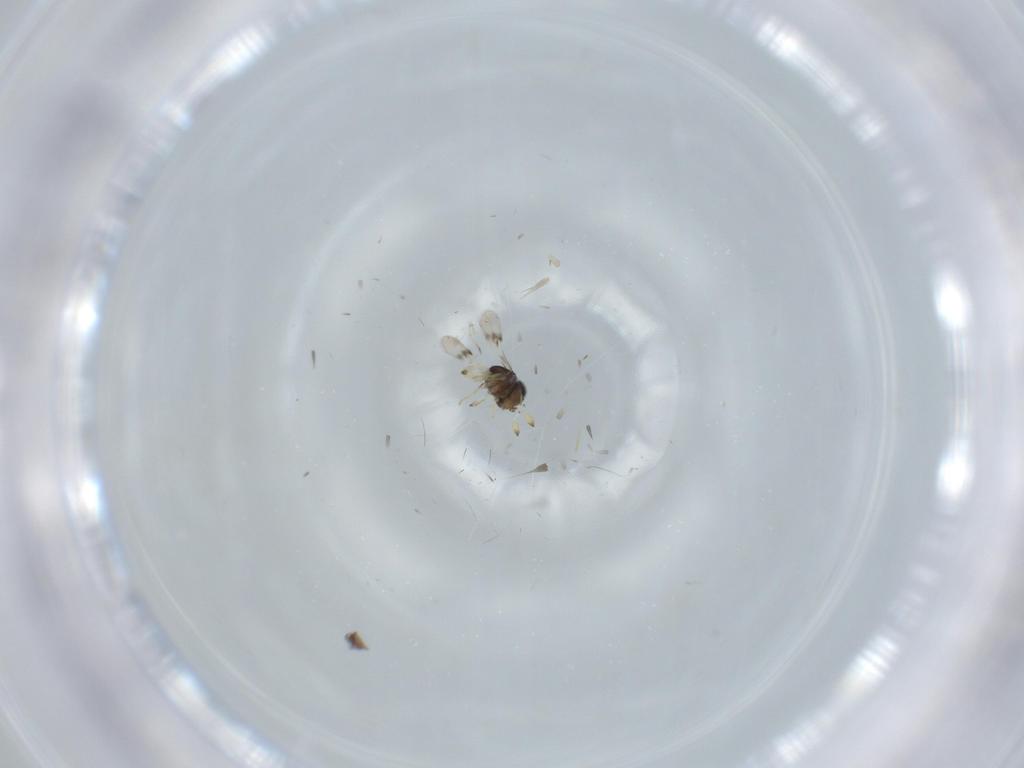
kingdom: Animalia
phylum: Arthropoda
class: Insecta
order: Hymenoptera
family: Scelionidae
